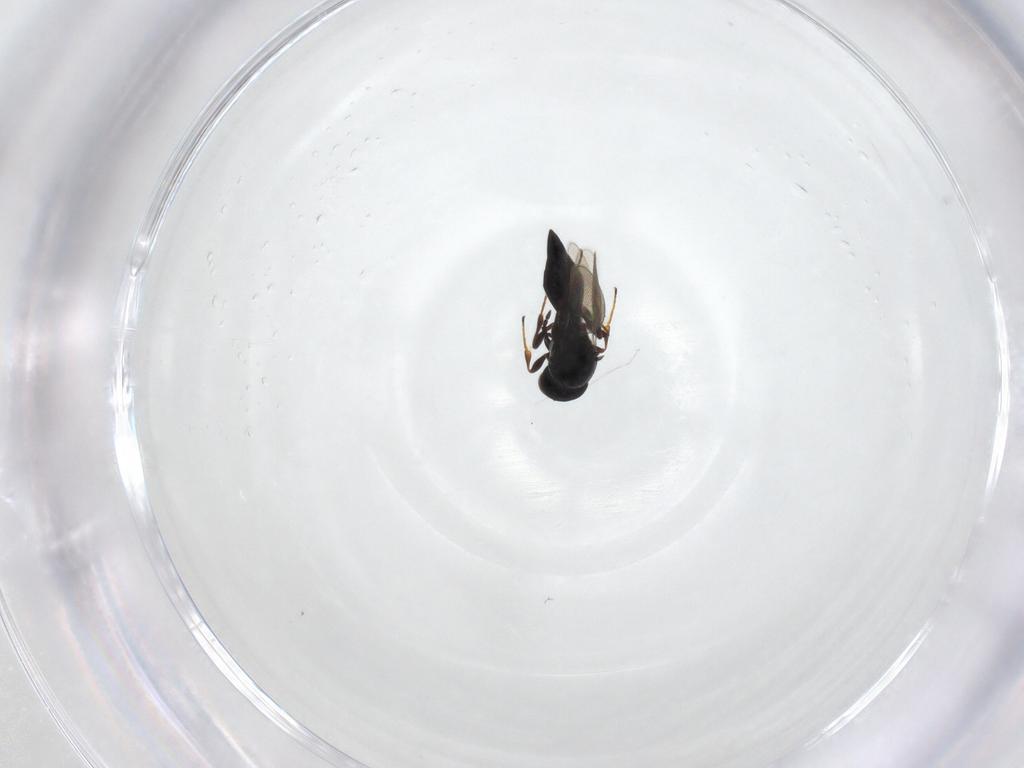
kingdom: Animalia
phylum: Arthropoda
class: Insecta
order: Hymenoptera
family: Platygastridae
